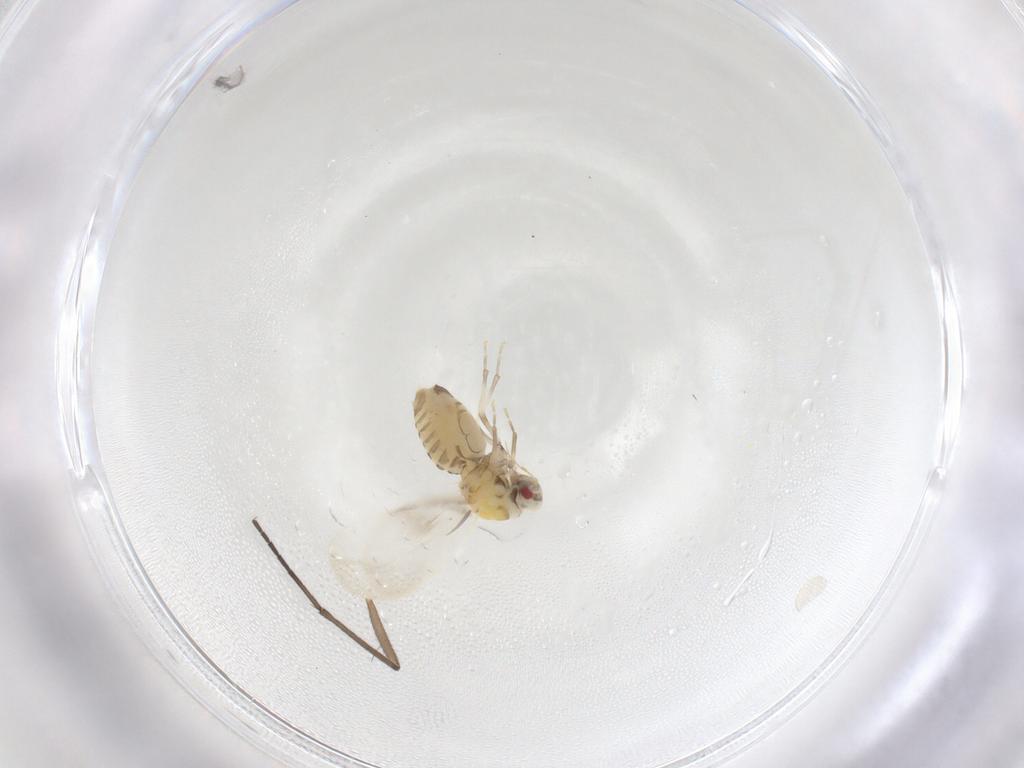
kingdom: Animalia
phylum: Arthropoda
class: Insecta
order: Hemiptera
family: Aleyrodidae
